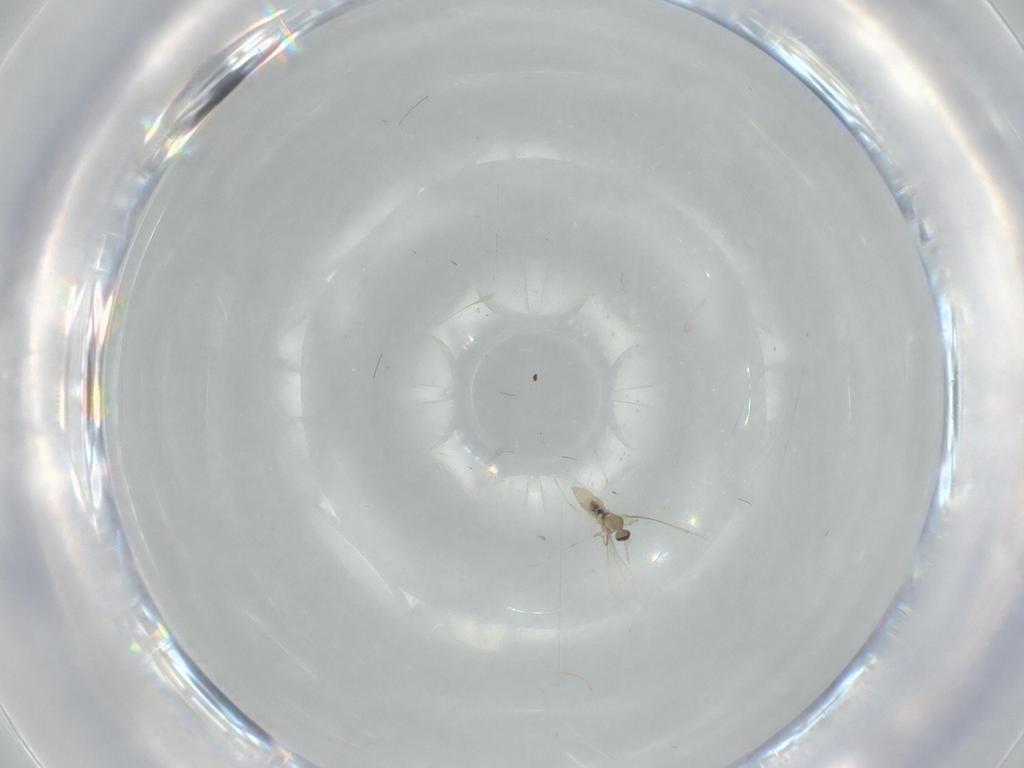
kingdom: Animalia
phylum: Arthropoda
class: Insecta
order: Diptera
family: Cecidomyiidae
